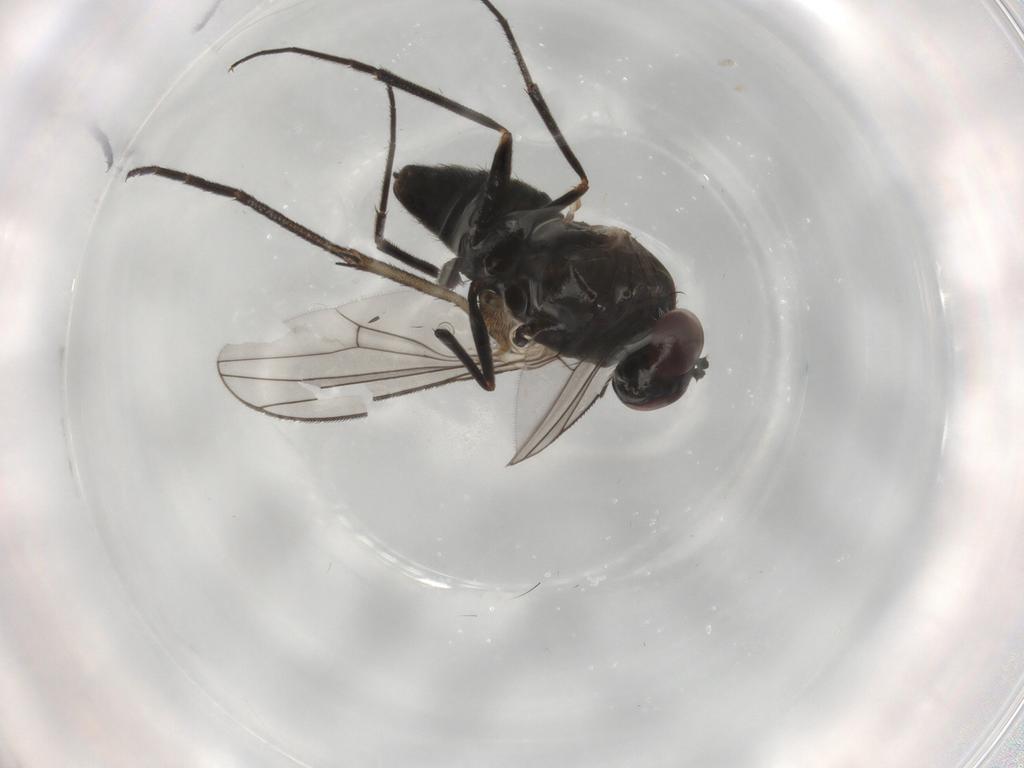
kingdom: Animalia
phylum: Arthropoda
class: Insecta
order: Diptera
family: Dolichopodidae
